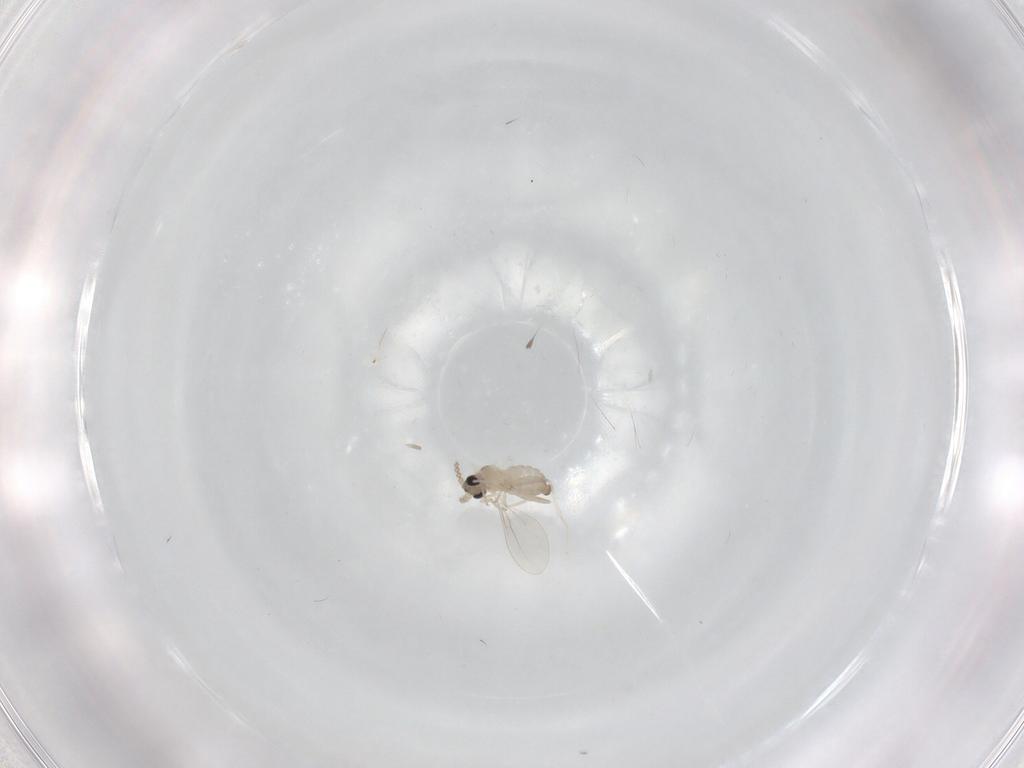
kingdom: Animalia
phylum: Arthropoda
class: Insecta
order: Diptera
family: Cecidomyiidae
